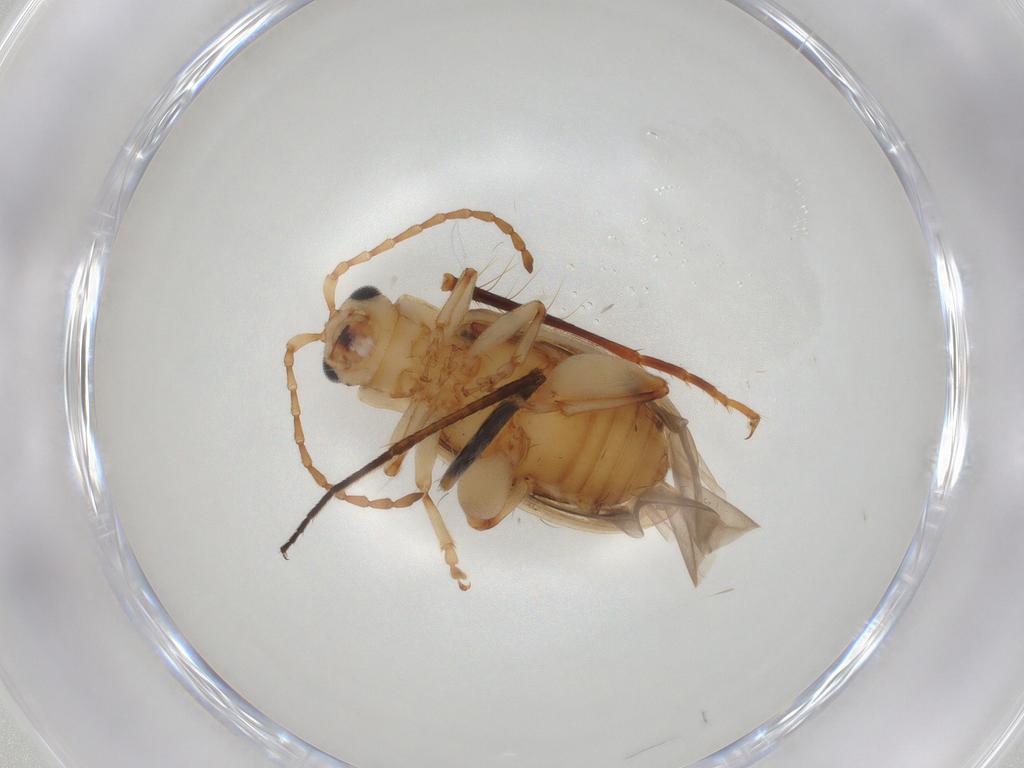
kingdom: Animalia
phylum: Arthropoda
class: Insecta
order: Coleoptera
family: Chrysomelidae
